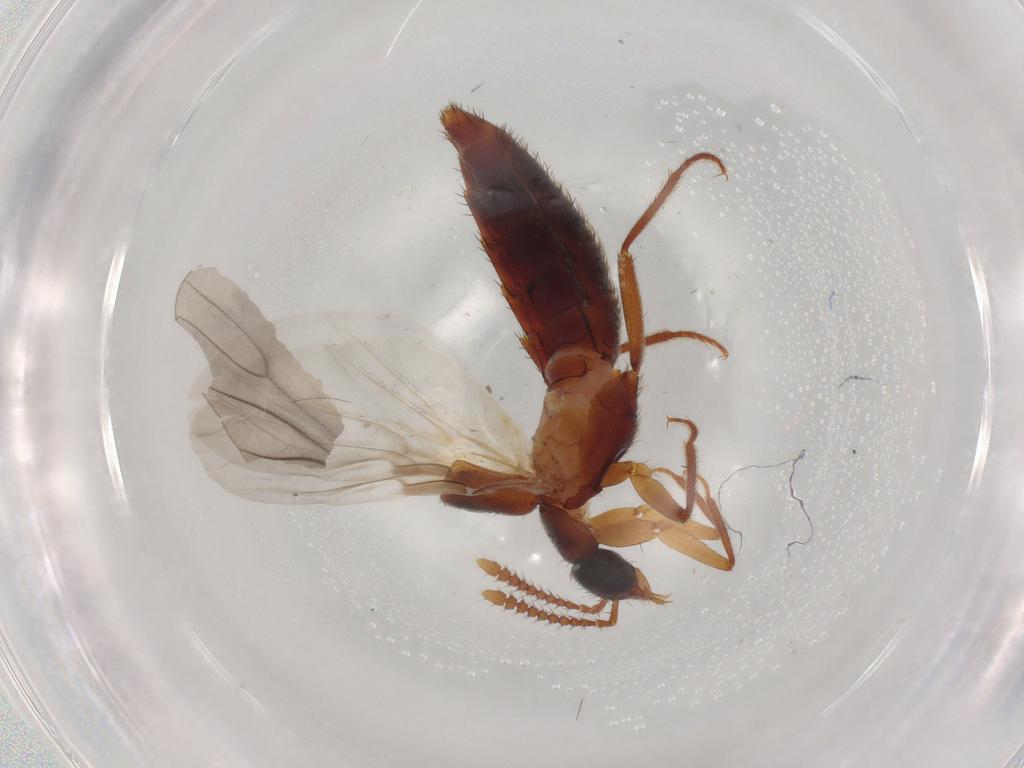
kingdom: Animalia
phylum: Arthropoda
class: Insecta
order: Coleoptera
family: Staphylinidae
